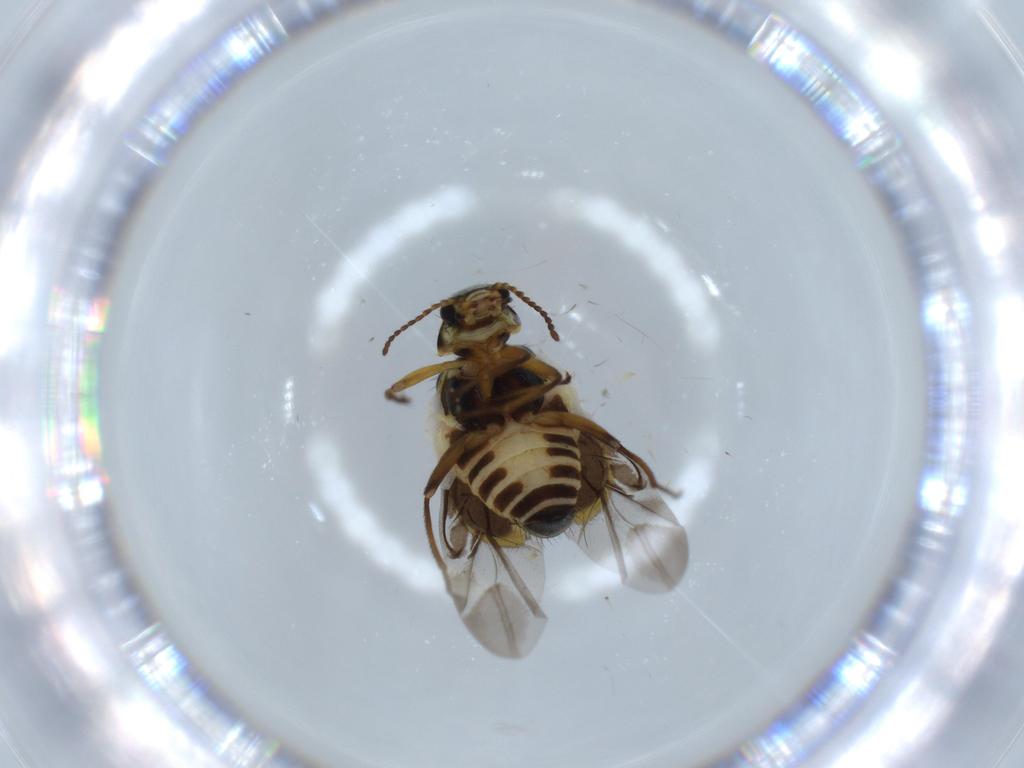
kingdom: Animalia
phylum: Arthropoda
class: Insecta
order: Coleoptera
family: Melyridae
